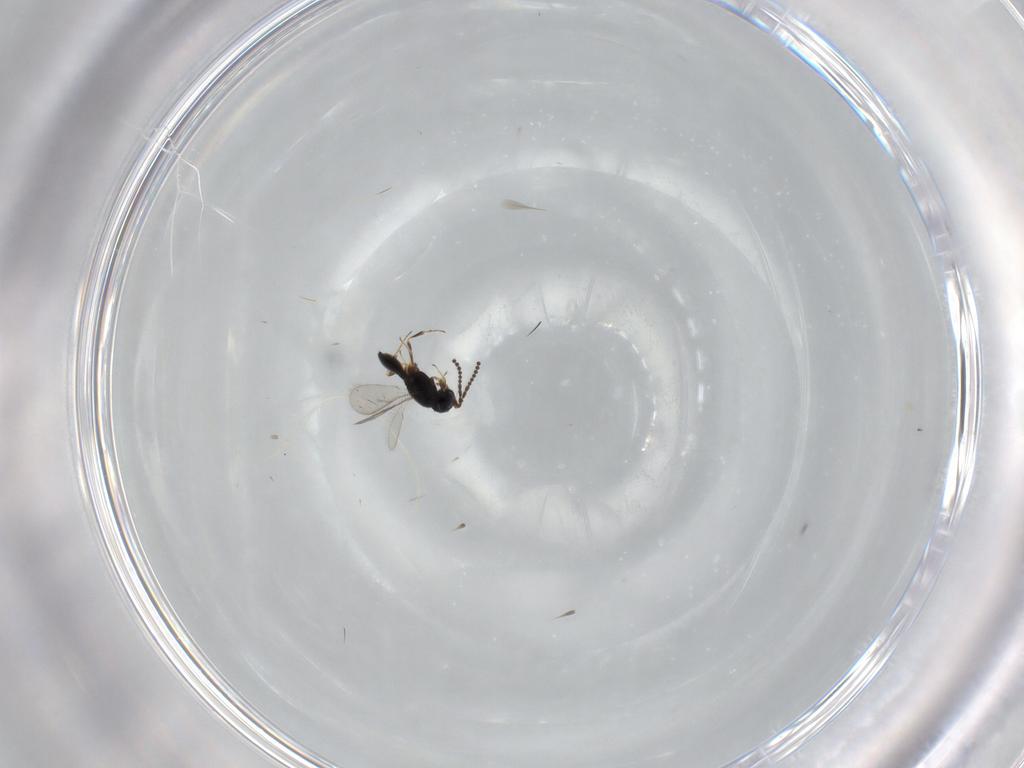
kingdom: Animalia
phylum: Arthropoda
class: Insecta
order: Hymenoptera
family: Scelionidae
